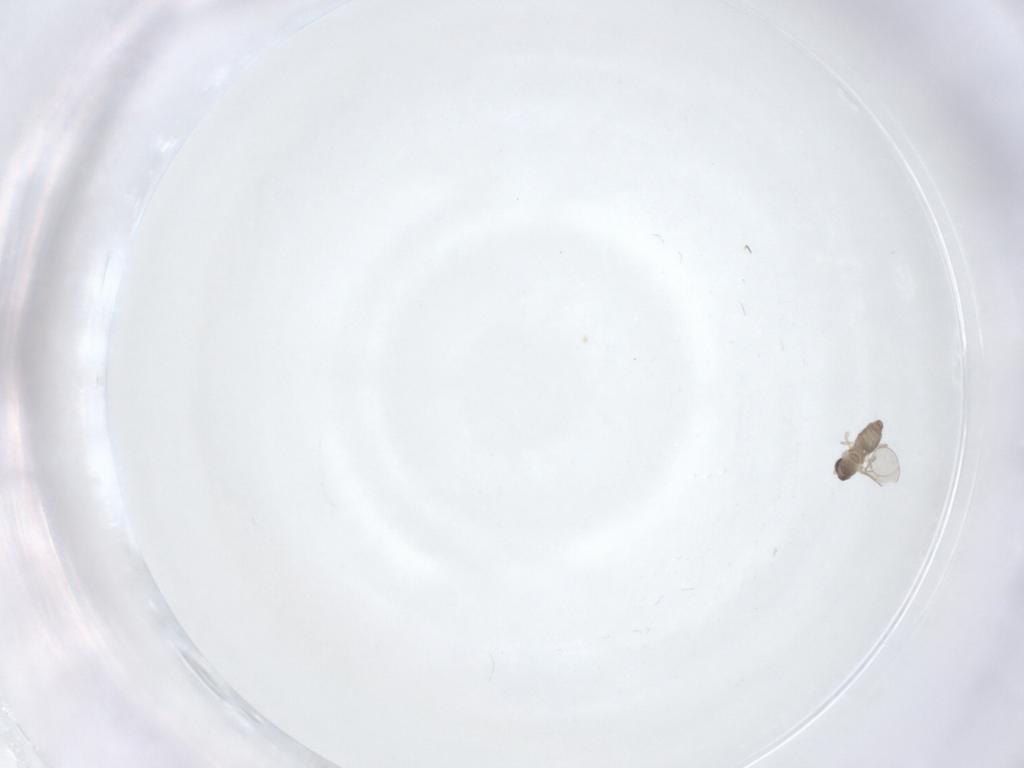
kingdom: Animalia
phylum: Arthropoda
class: Insecta
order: Diptera
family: Cecidomyiidae
